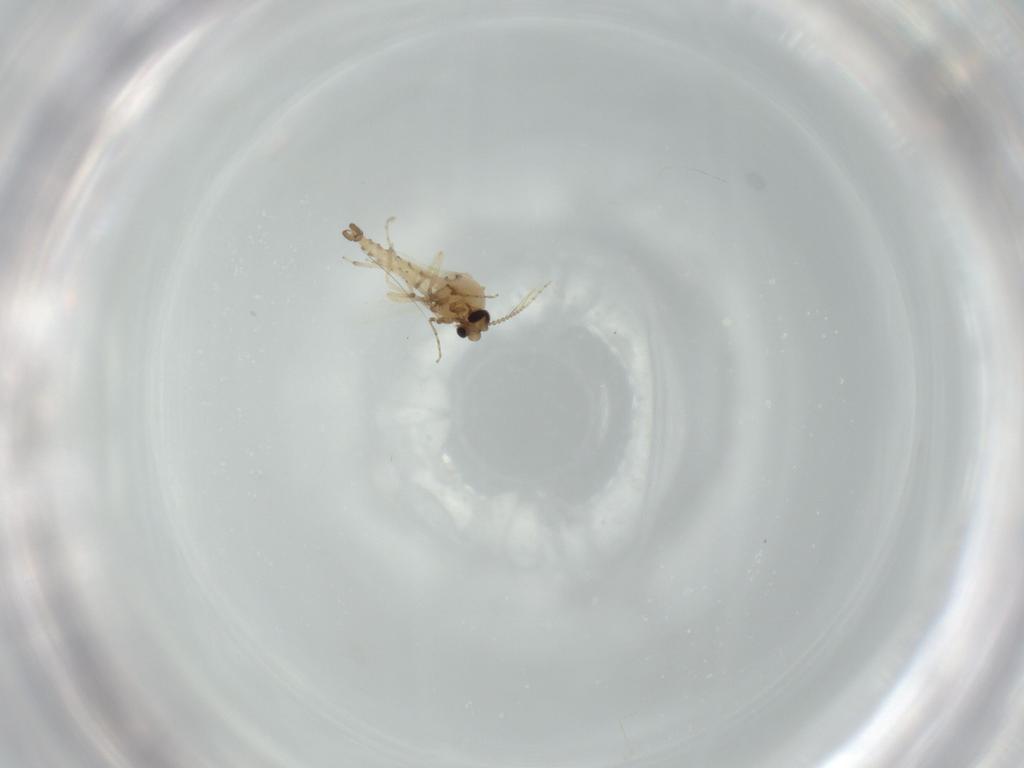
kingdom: Animalia
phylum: Arthropoda
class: Insecta
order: Diptera
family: Ceratopogonidae
